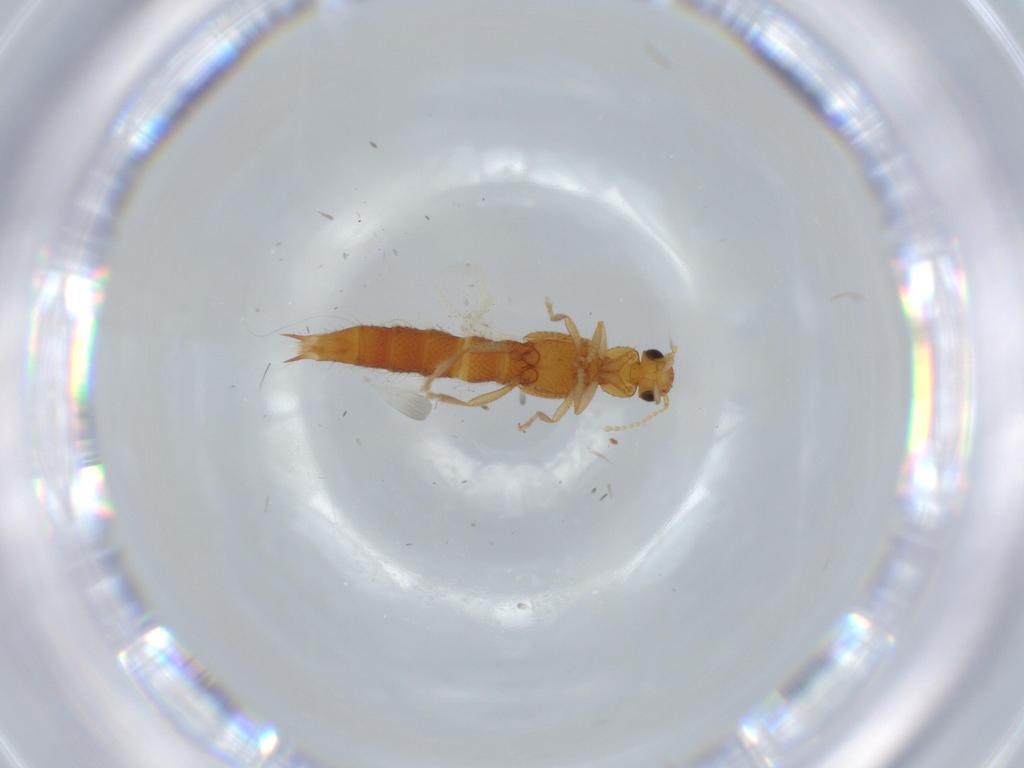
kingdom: Animalia
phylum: Arthropoda
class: Insecta
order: Coleoptera
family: Staphylinidae
